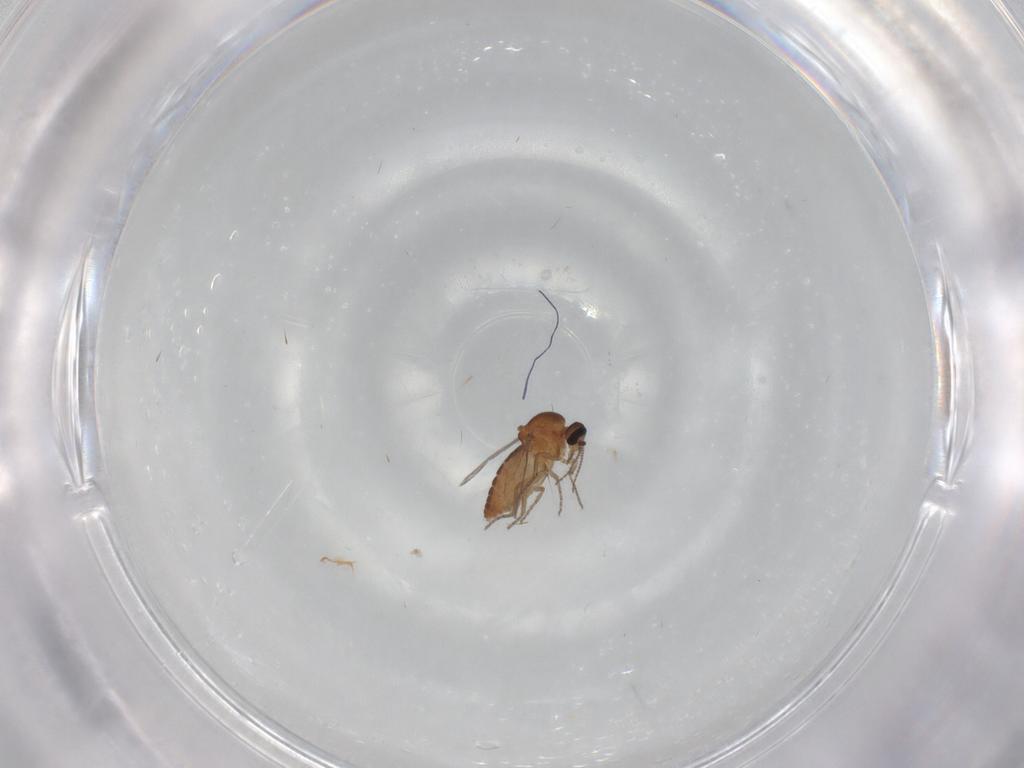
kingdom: Animalia
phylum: Arthropoda
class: Insecta
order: Diptera
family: Ceratopogonidae
